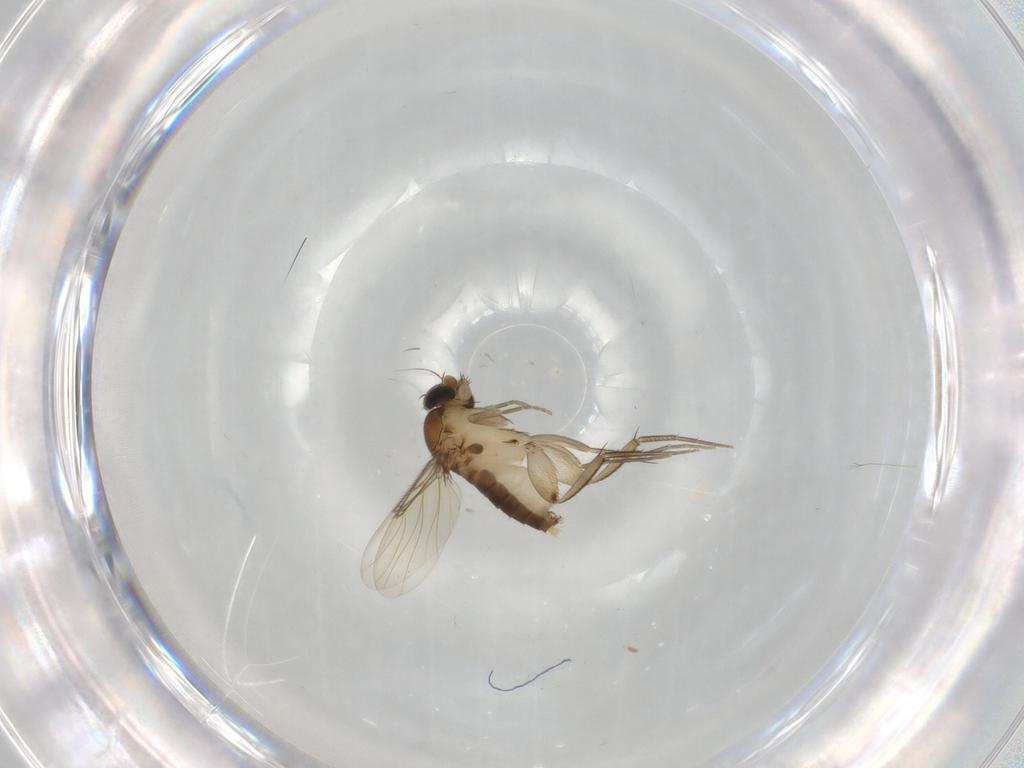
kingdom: Animalia
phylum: Arthropoda
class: Insecta
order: Diptera
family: Phoridae
